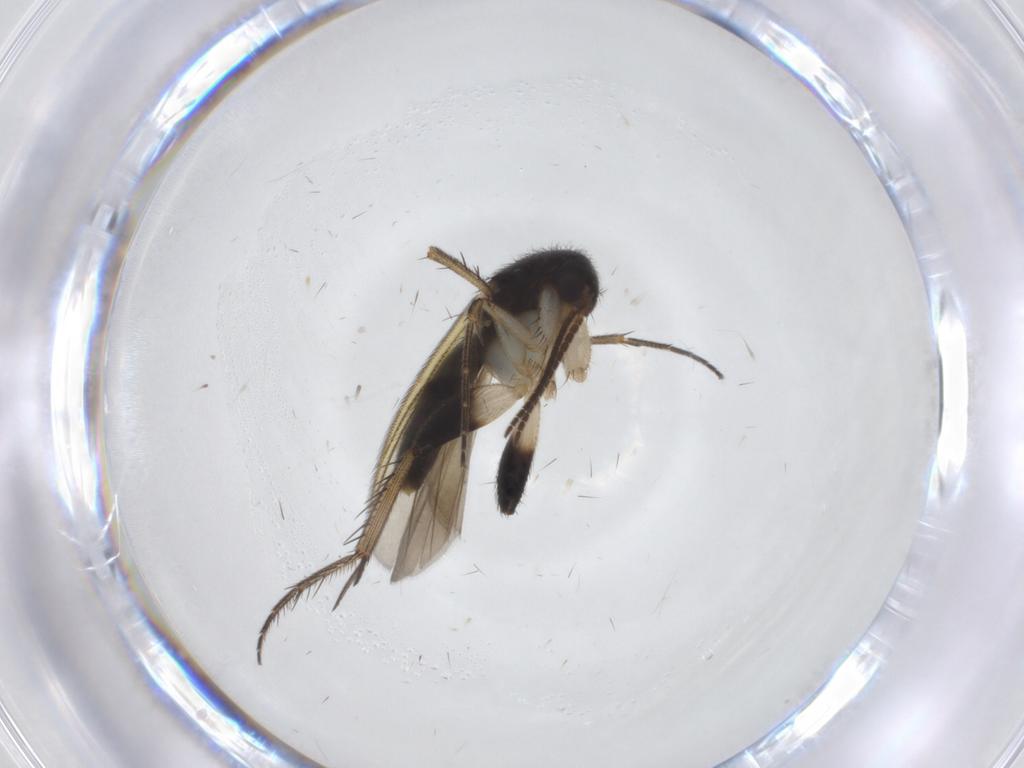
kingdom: Animalia
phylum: Arthropoda
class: Insecta
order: Diptera
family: Mycetophilidae
